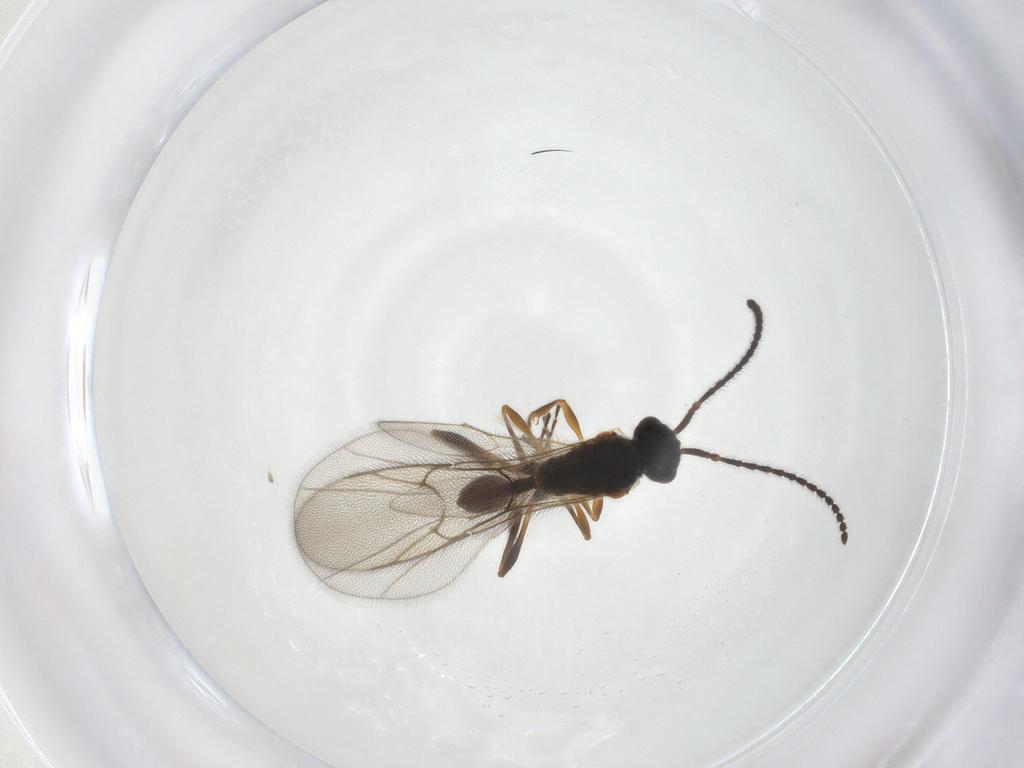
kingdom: Animalia
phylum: Arthropoda
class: Insecta
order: Hymenoptera
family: Diapriidae
